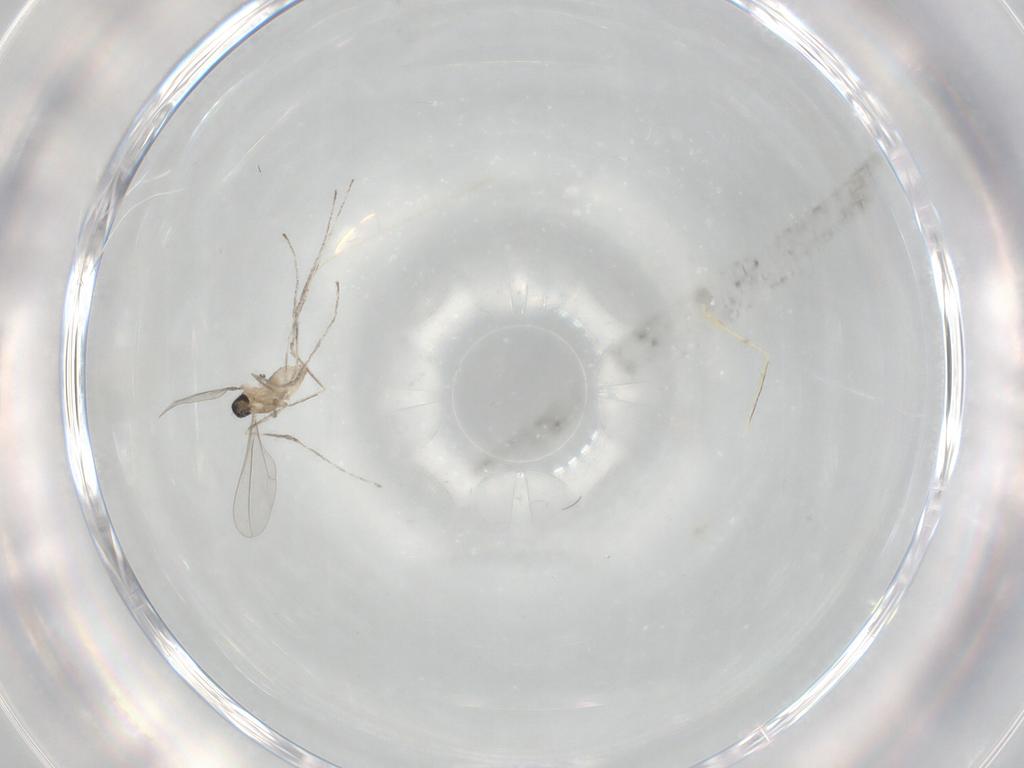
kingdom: Animalia
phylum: Arthropoda
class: Insecta
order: Diptera
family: Cecidomyiidae
